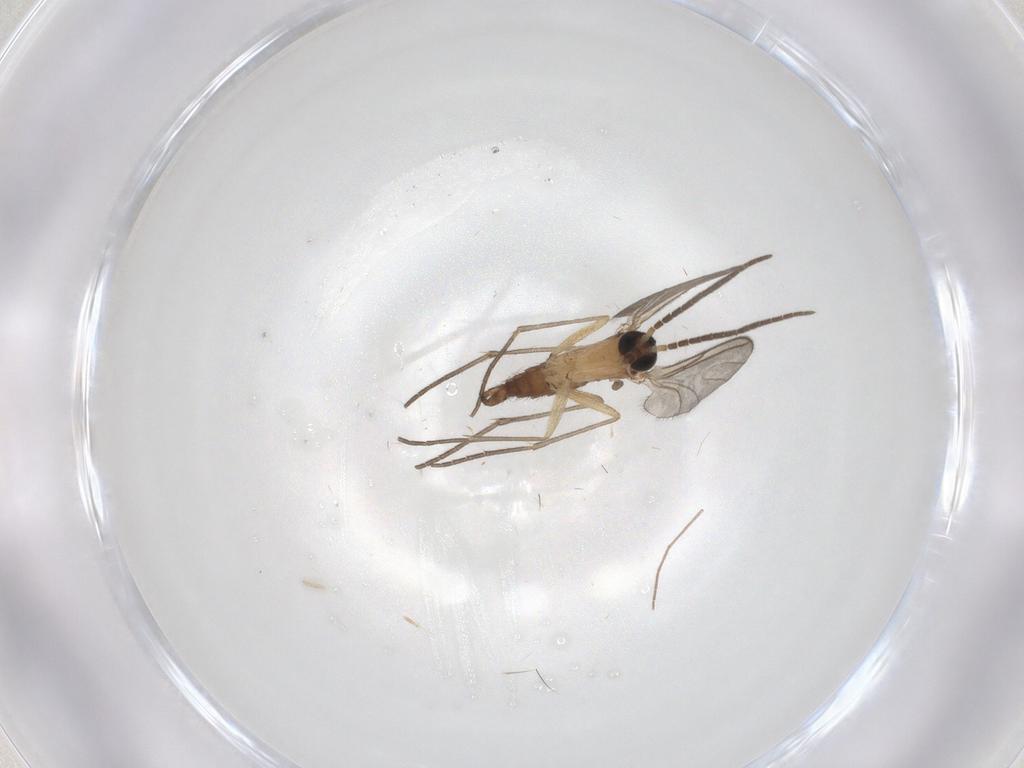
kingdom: Animalia
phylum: Arthropoda
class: Insecta
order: Diptera
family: Chironomidae
